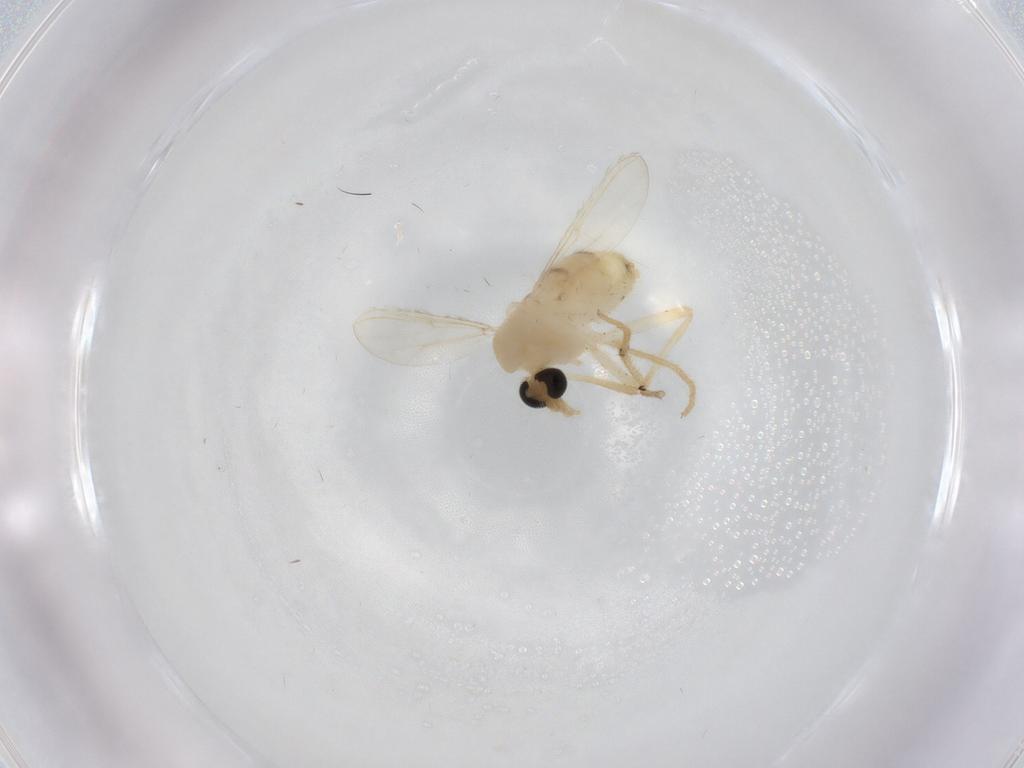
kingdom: Animalia
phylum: Arthropoda
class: Insecta
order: Diptera
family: Chironomidae
